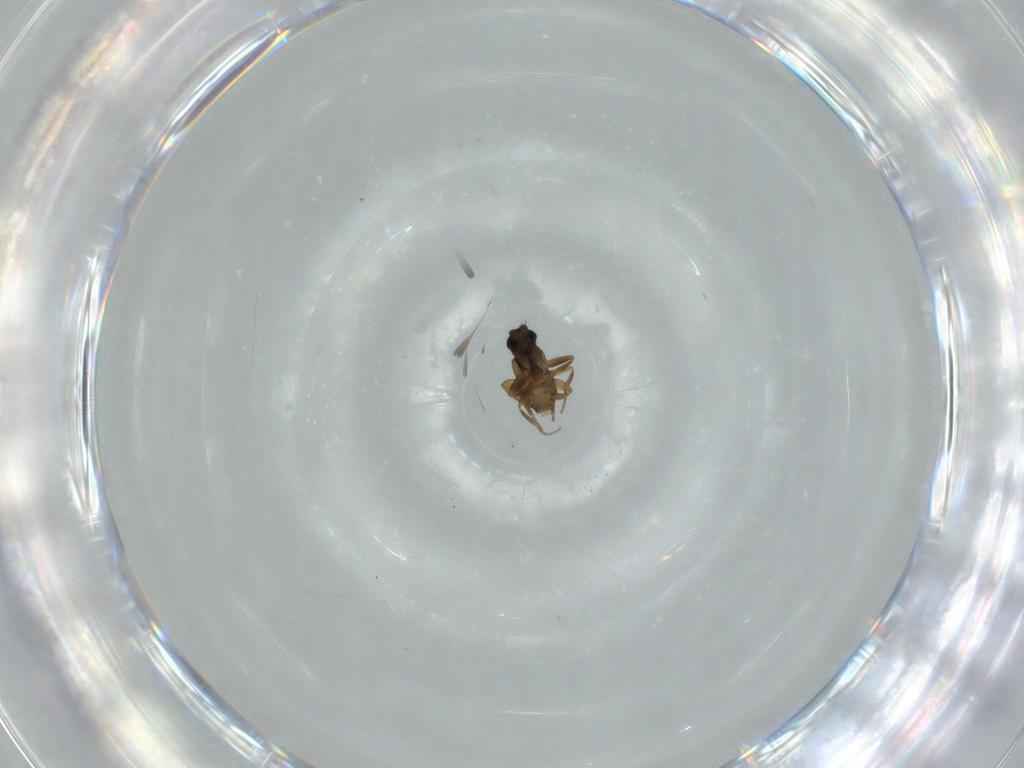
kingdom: Animalia
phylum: Arthropoda
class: Insecta
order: Diptera
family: Phoridae
